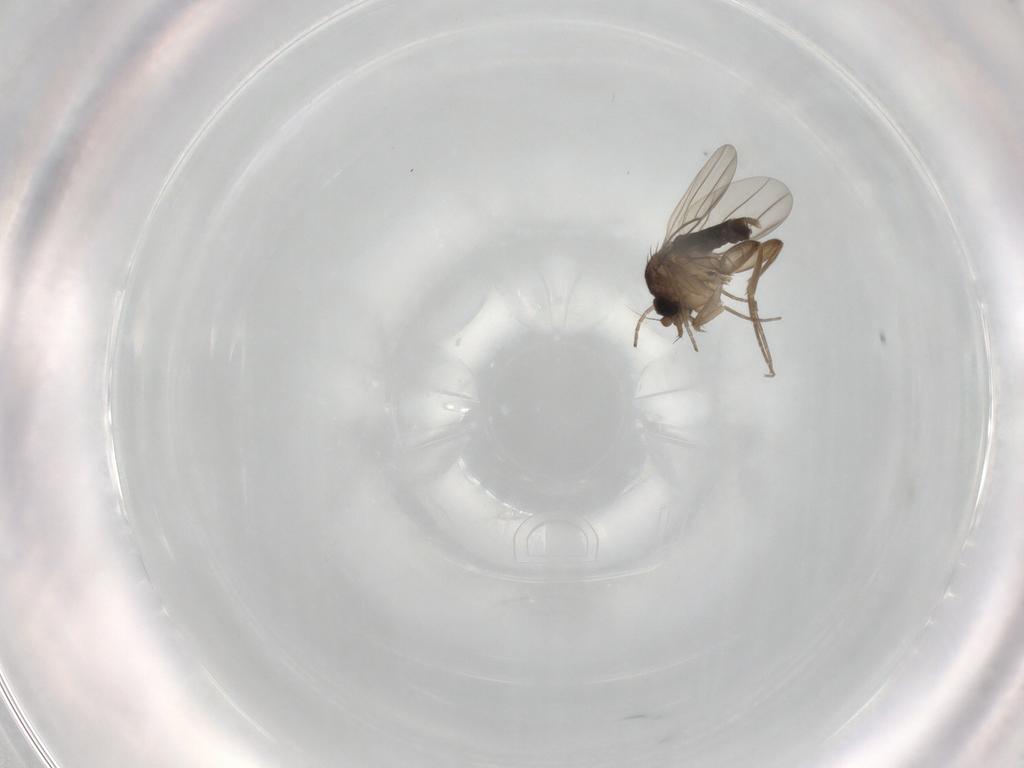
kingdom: Animalia
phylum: Arthropoda
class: Insecta
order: Diptera
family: Phoridae
